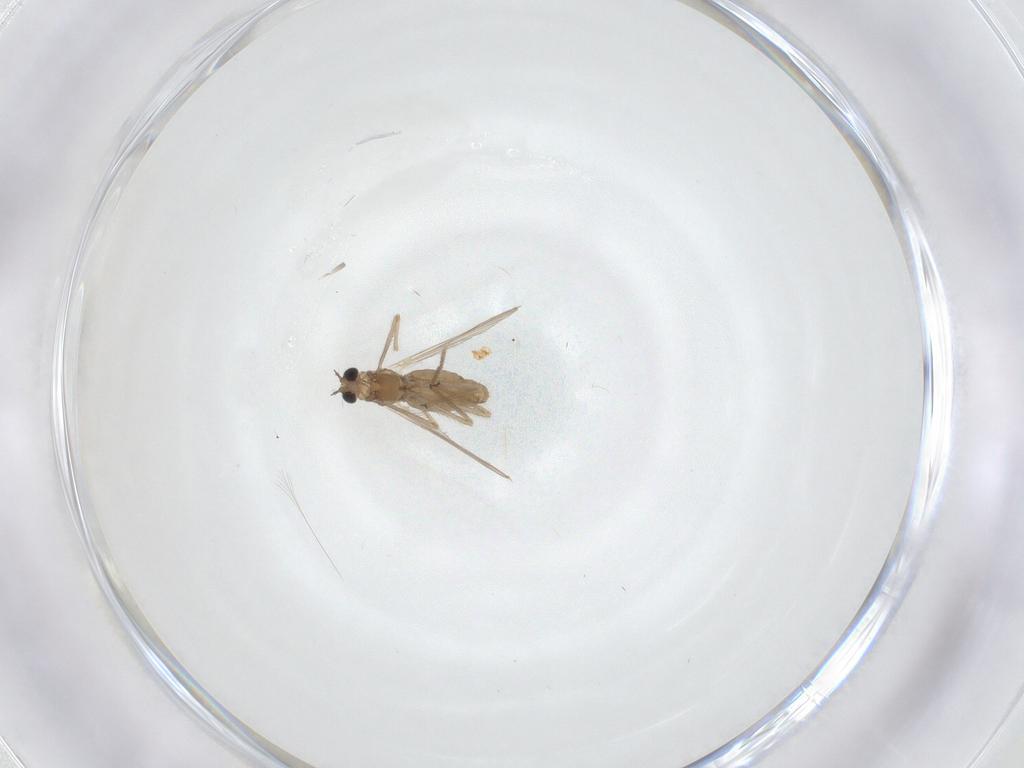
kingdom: Animalia
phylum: Arthropoda
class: Insecta
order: Diptera
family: Chironomidae
